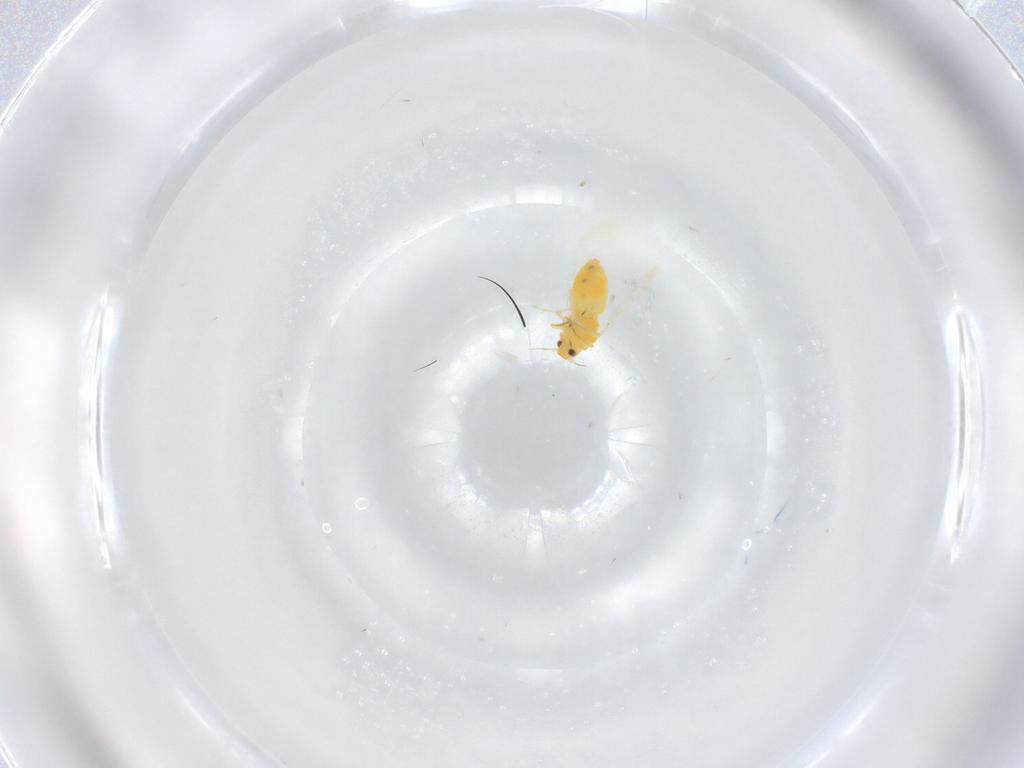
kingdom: Animalia
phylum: Arthropoda
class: Insecta
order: Hemiptera
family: Aleyrodidae
